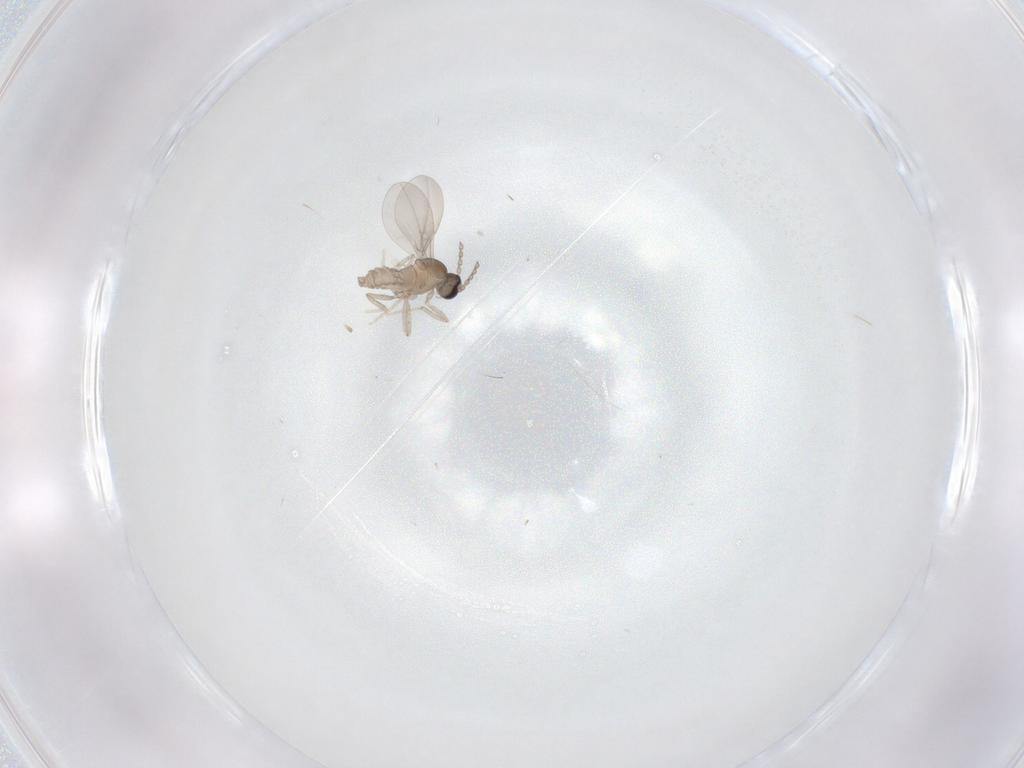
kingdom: Animalia
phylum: Arthropoda
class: Insecta
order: Diptera
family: Cecidomyiidae
